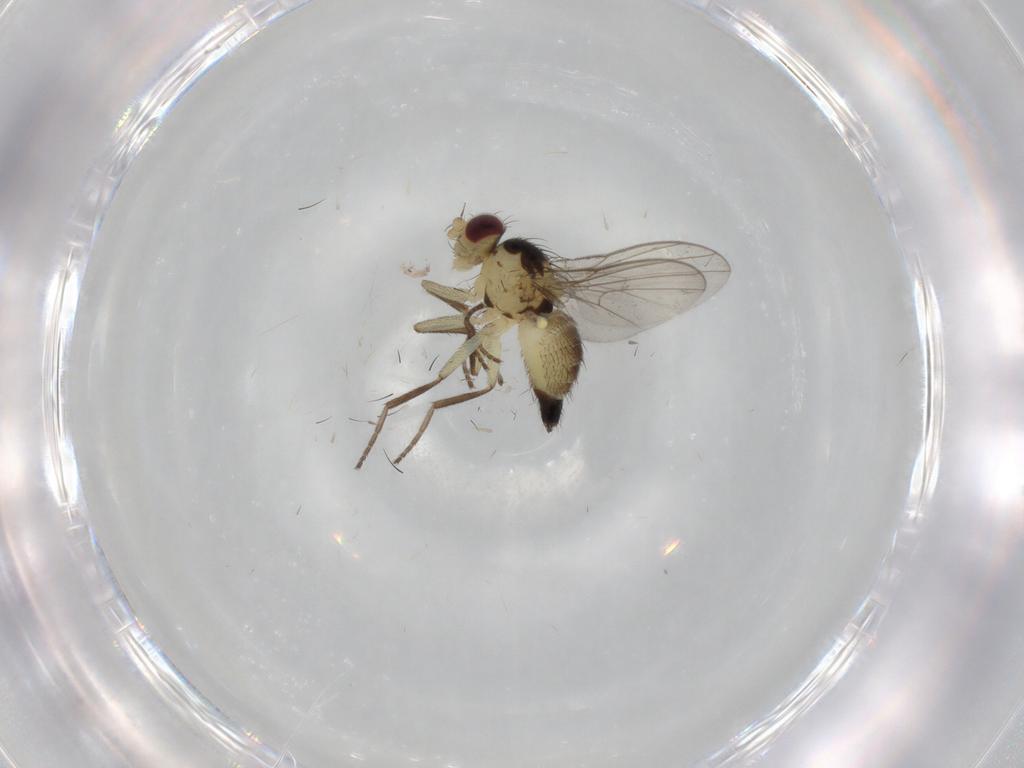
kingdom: Animalia
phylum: Arthropoda
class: Insecta
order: Diptera
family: Agromyzidae
